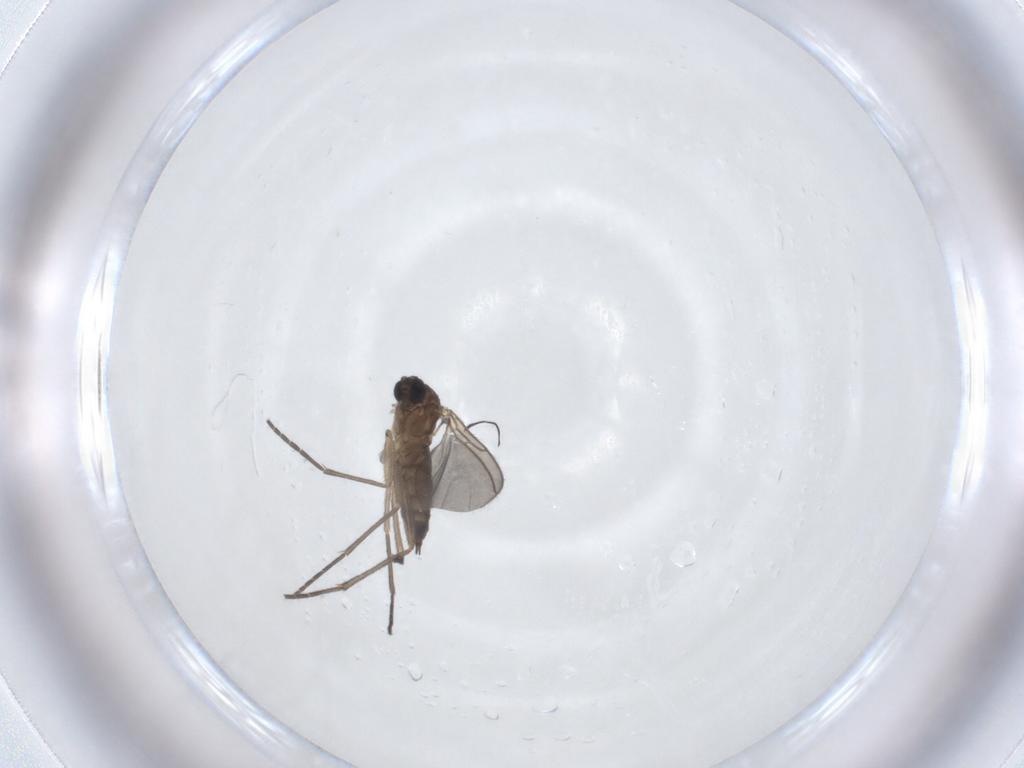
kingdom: Animalia
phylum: Arthropoda
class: Insecta
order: Diptera
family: Sciaridae
